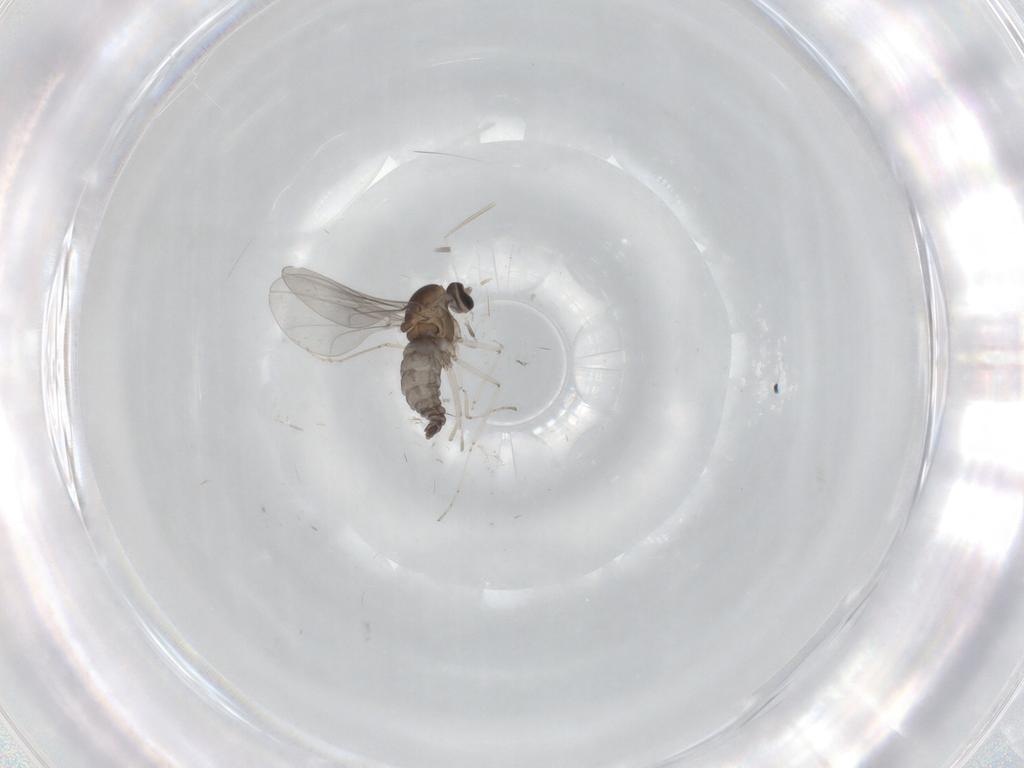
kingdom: Animalia
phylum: Arthropoda
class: Insecta
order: Diptera
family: Cecidomyiidae
